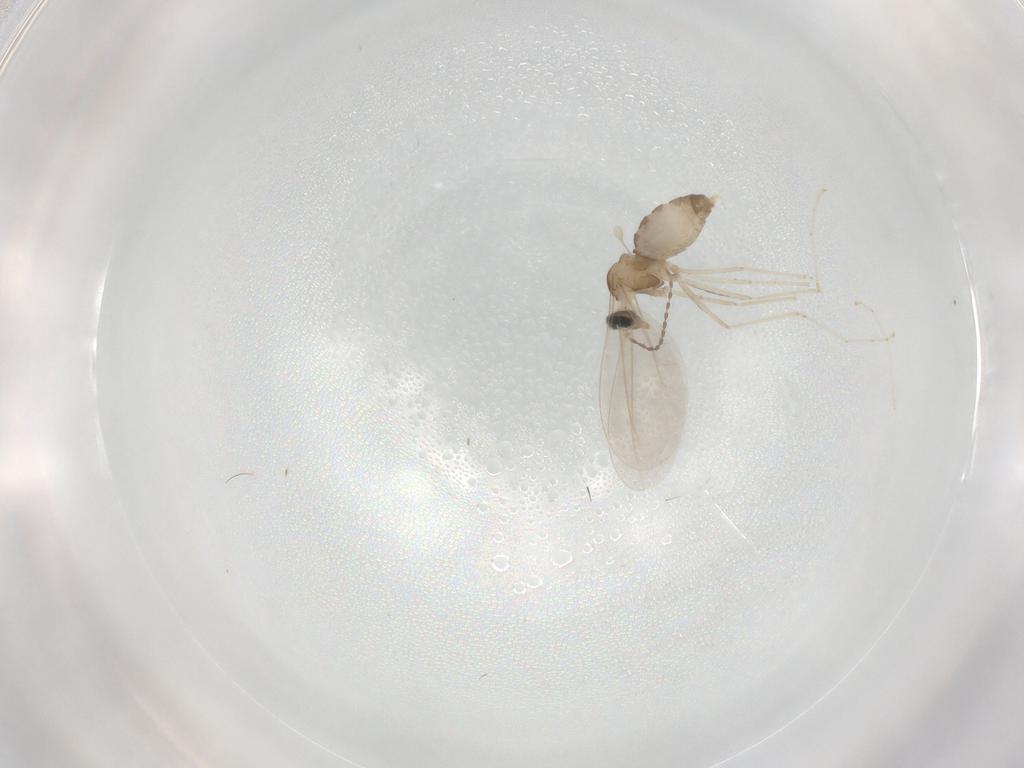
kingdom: Animalia
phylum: Arthropoda
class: Insecta
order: Diptera
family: Cecidomyiidae
